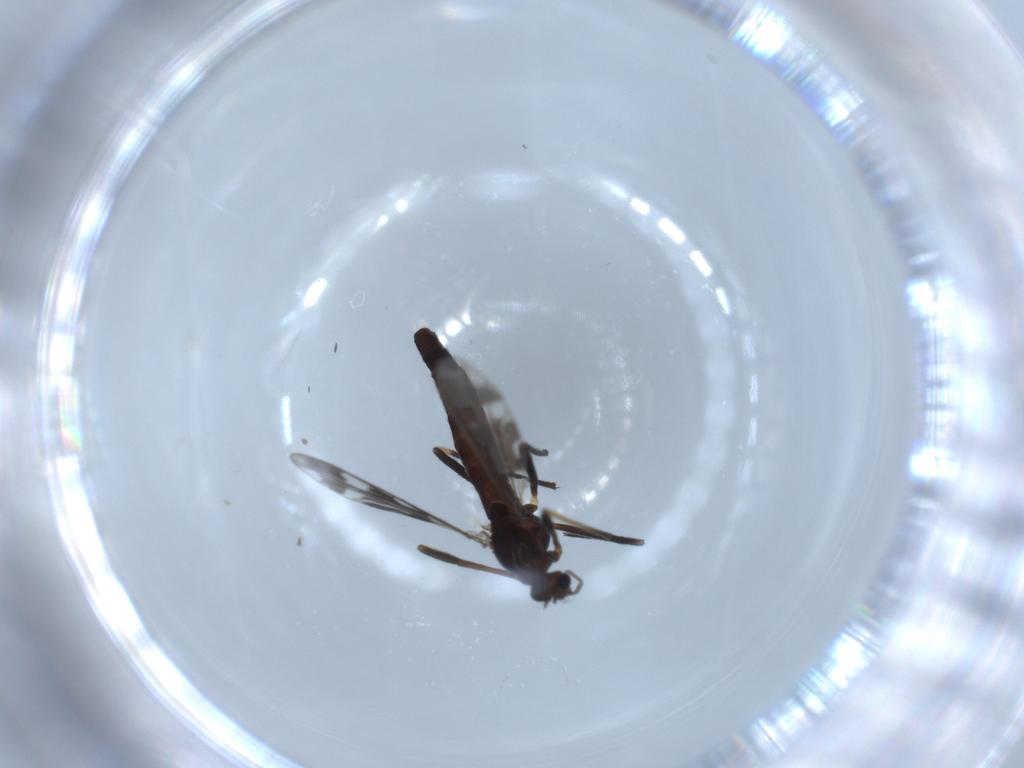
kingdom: Animalia
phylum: Arthropoda
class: Insecta
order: Diptera
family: Chironomidae
